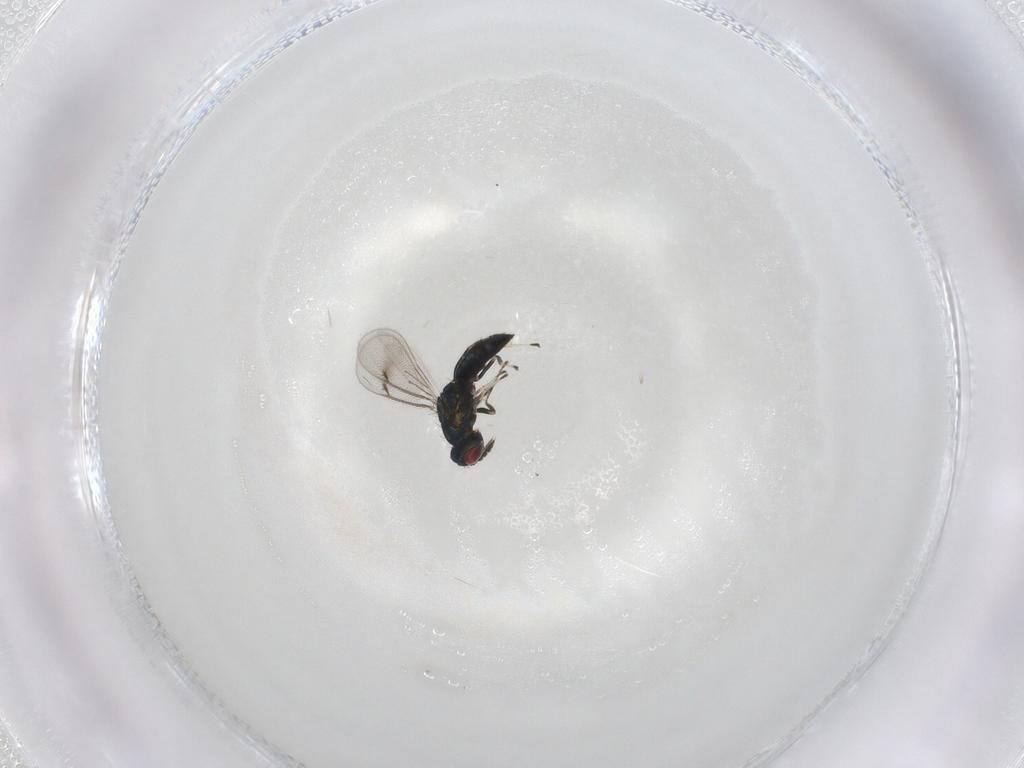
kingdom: Animalia
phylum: Arthropoda
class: Insecta
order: Hymenoptera
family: Eulophidae
